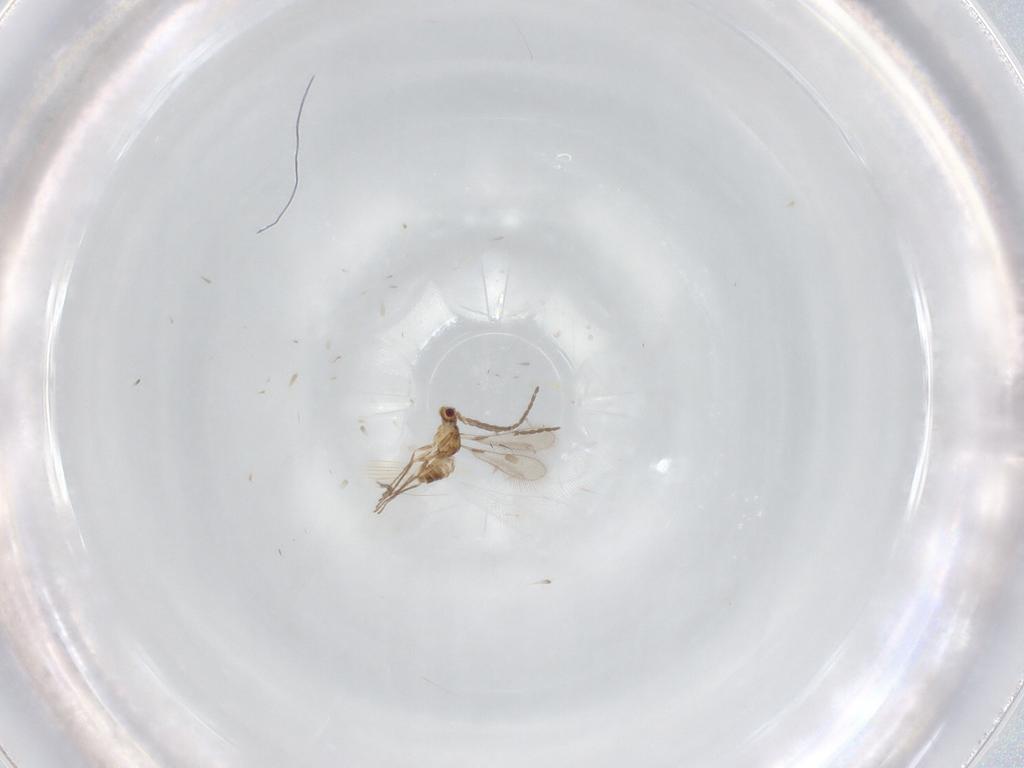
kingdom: Animalia
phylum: Arthropoda
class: Insecta
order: Hymenoptera
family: Mymaridae
